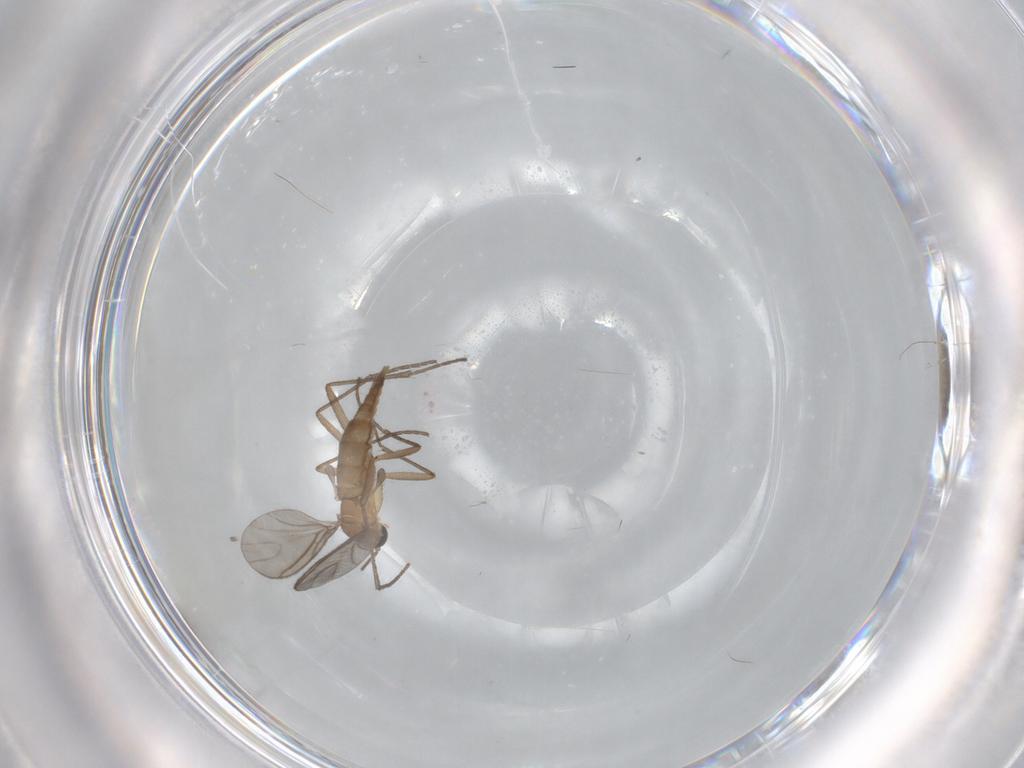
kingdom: Animalia
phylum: Arthropoda
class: Insecta
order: Diptera
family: Sciaridae
